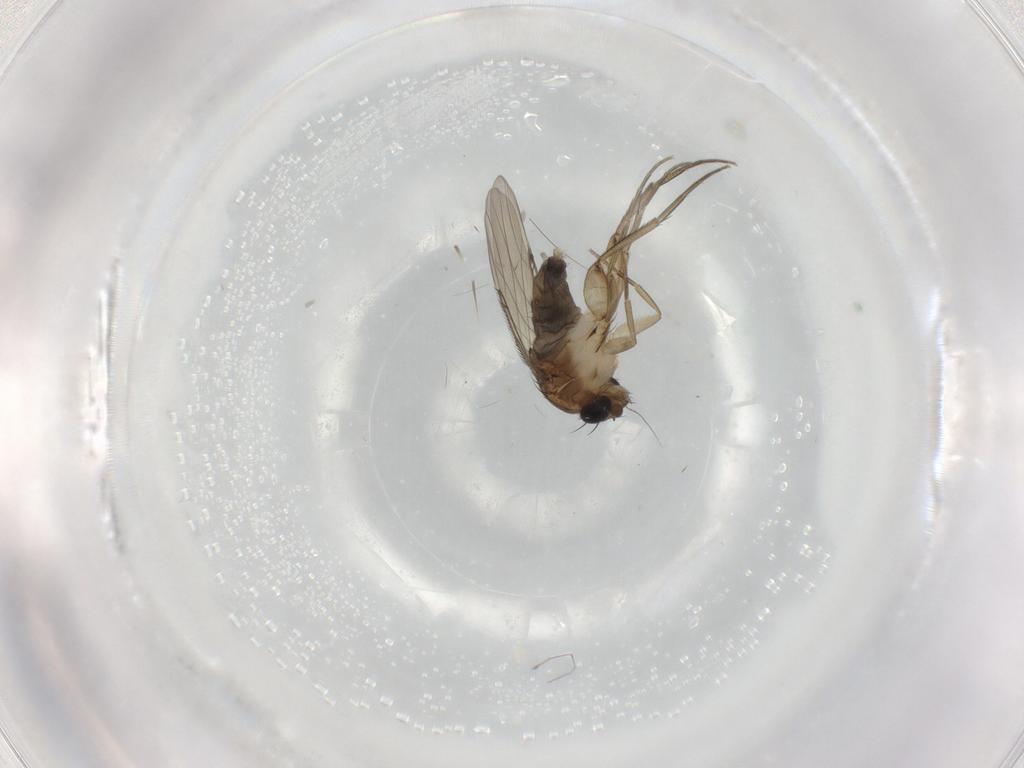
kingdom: Animalia
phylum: Arthropoda
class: Insecta
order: Diptera
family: Phoridae
